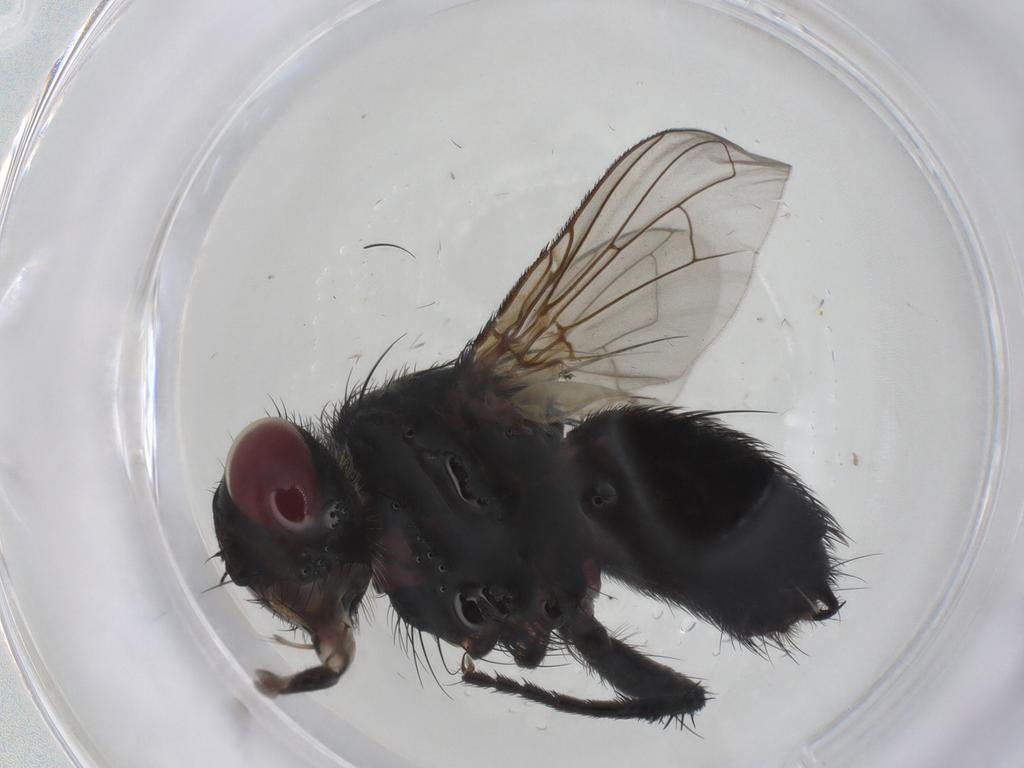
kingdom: Animalia
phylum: Arthropoda
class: Insecta
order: Diptera
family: Tachinidae
